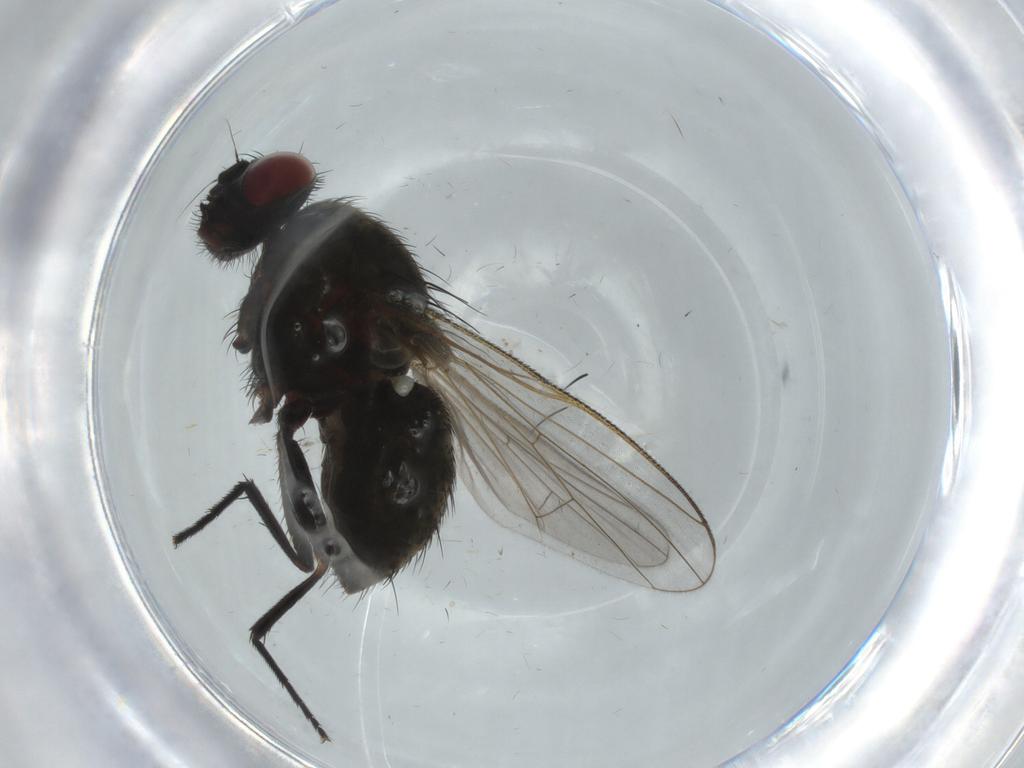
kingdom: Animalia
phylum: Arthropoda
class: Insecta
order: Diptera
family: Muscidae
